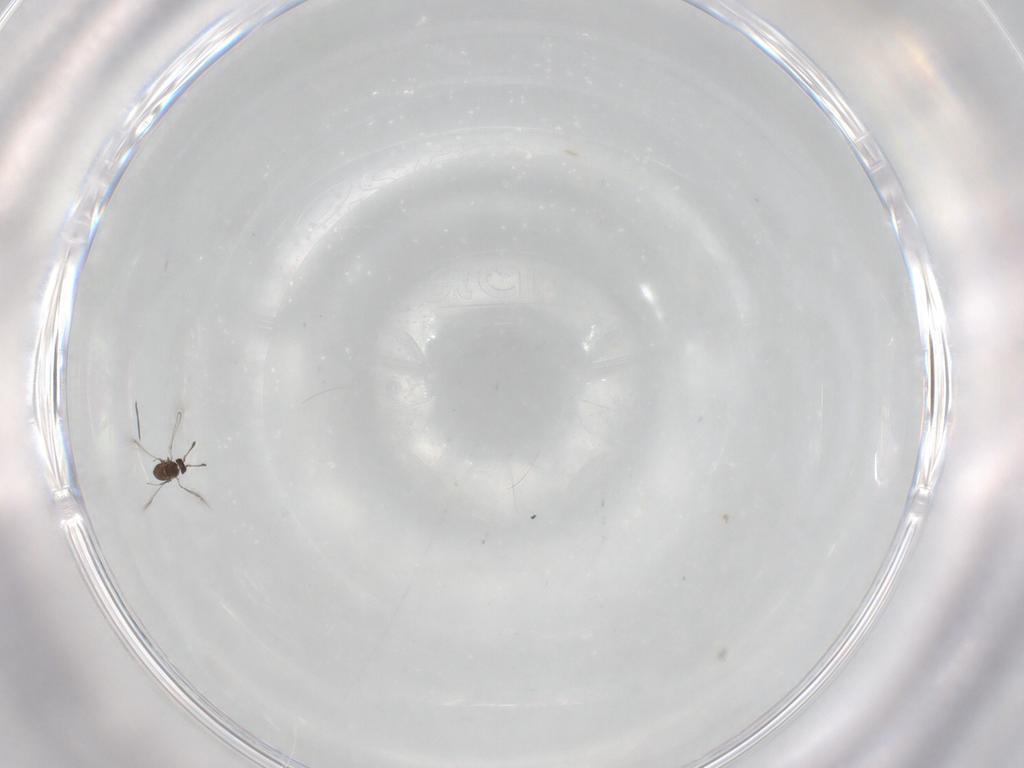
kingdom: Animalia
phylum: Arthropoda
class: Insecta
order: Hymenoptera
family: Mymaridae
